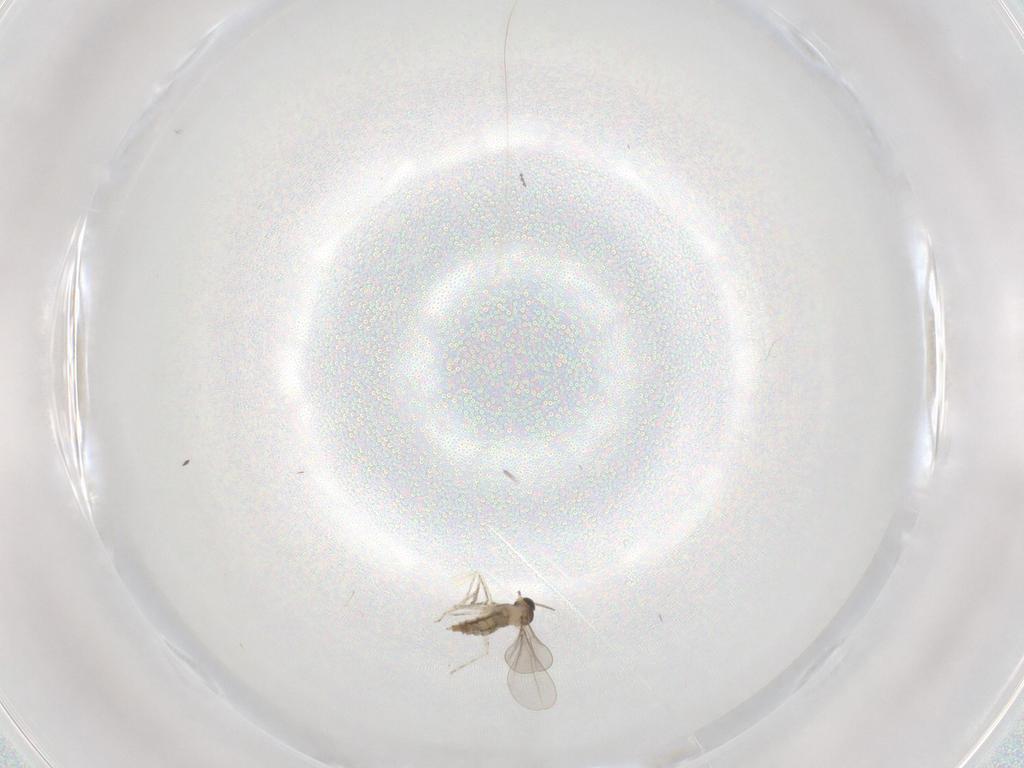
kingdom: Animalia
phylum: Arthropoda
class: Insecta
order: Diptera
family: Cecidomyiidae
